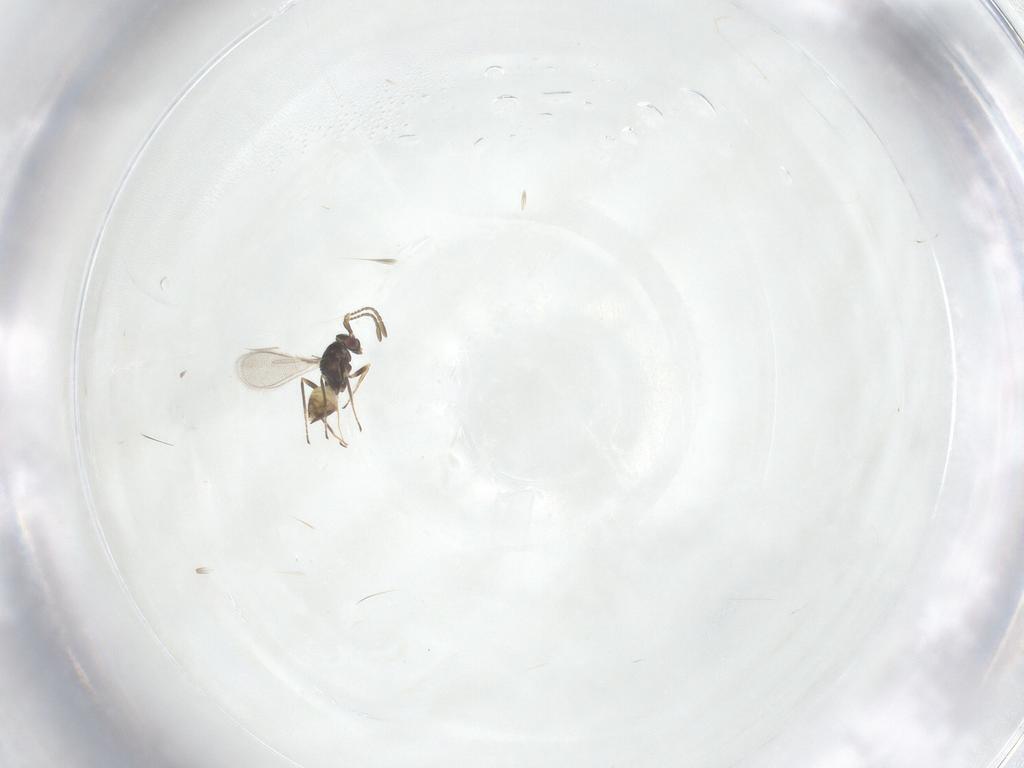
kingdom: Animalia
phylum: Arthropoda
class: Insecta
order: Hymenoptera
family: Mymaridae
